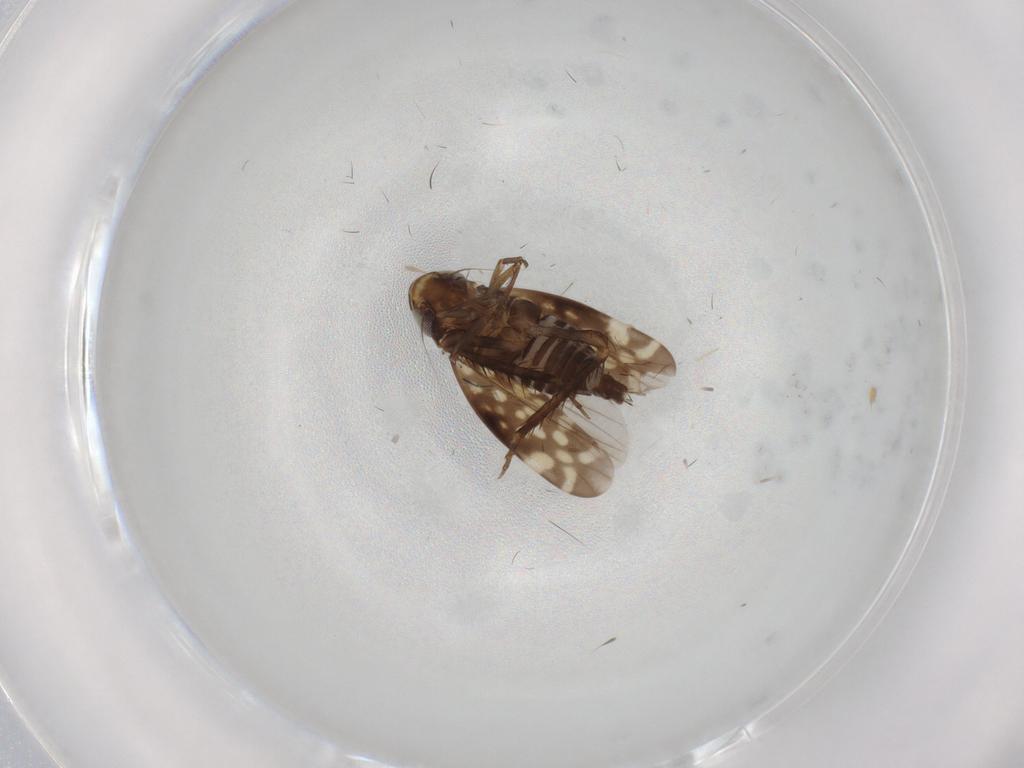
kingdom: Animalia
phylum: Arthropoda
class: Insecta
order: Hemiptera
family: Cicadellidae
